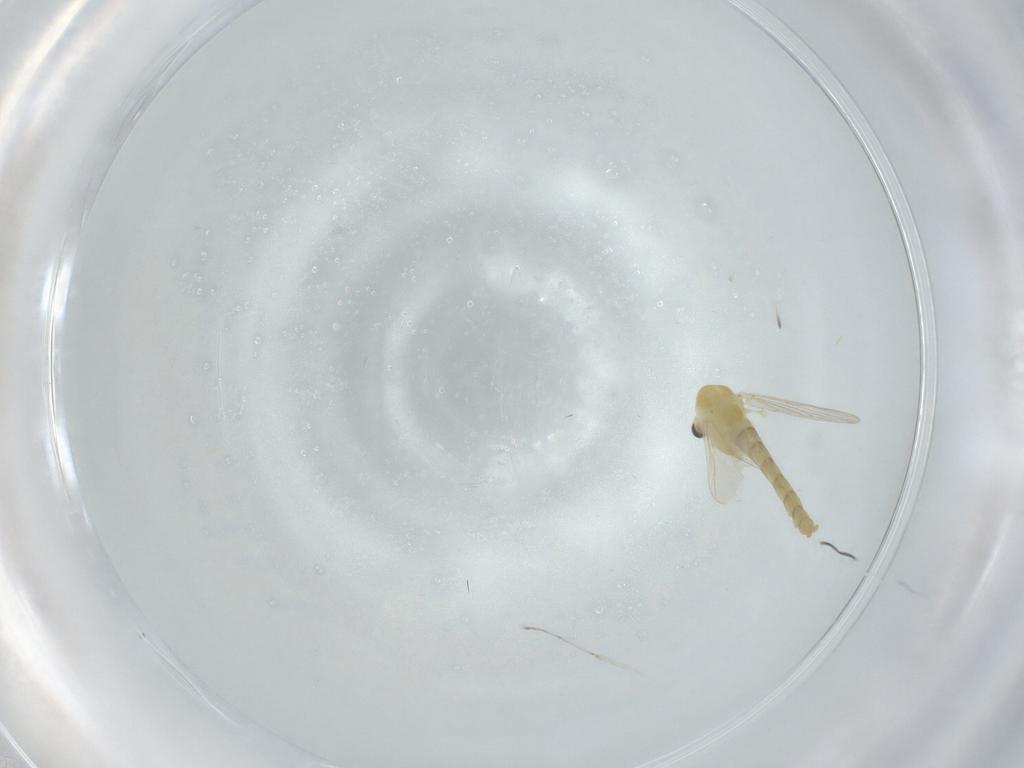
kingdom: Animalia
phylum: Arthropoda
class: Insecta
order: Diptera
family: Chironomidae
